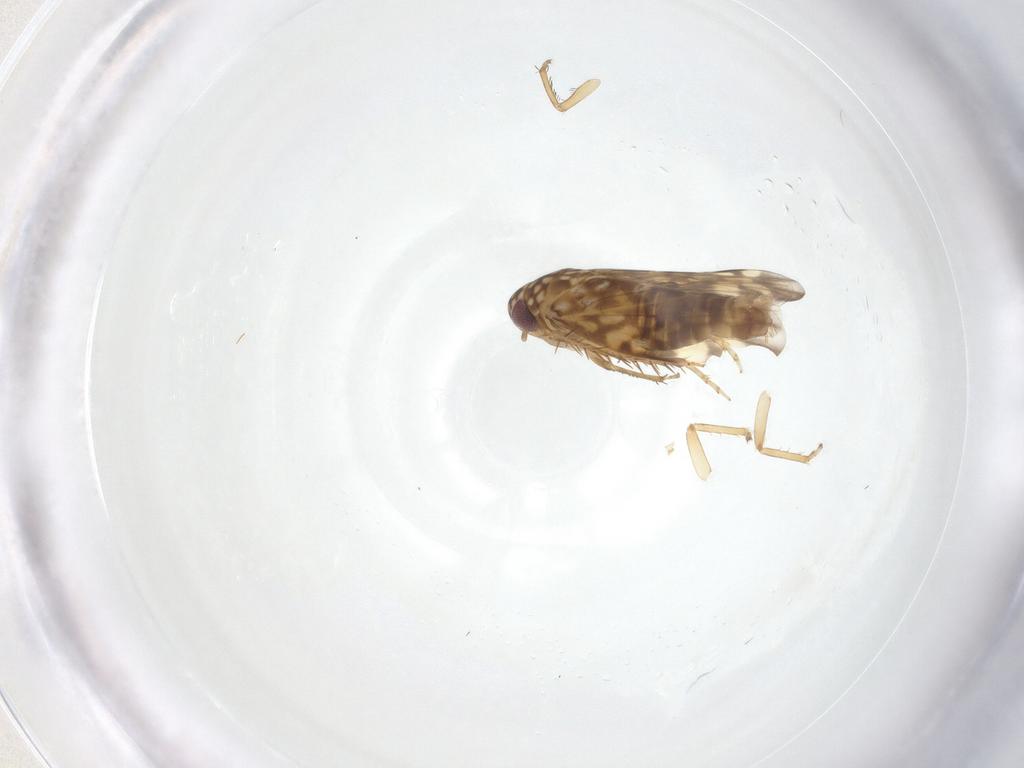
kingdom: Animalia
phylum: Arthropoda
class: Insecta
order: Hemiptera
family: Cicadellidae
